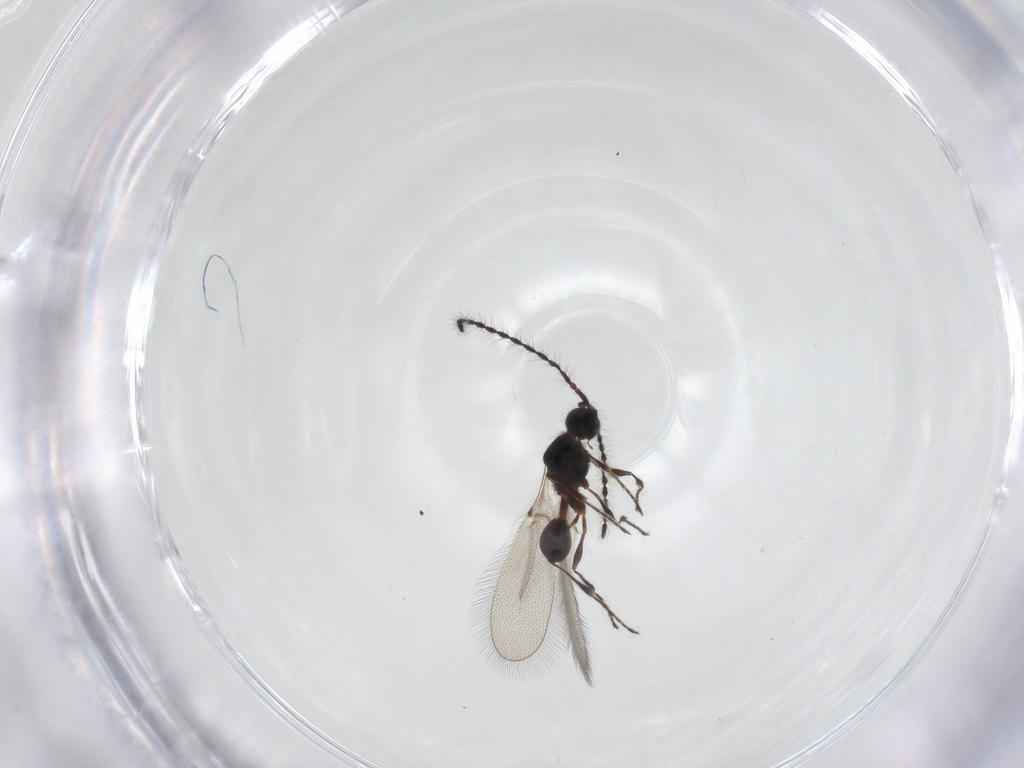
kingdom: Animalia
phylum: Arthropoda
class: Insecta
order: Hymenoptera
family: Diapriidae
